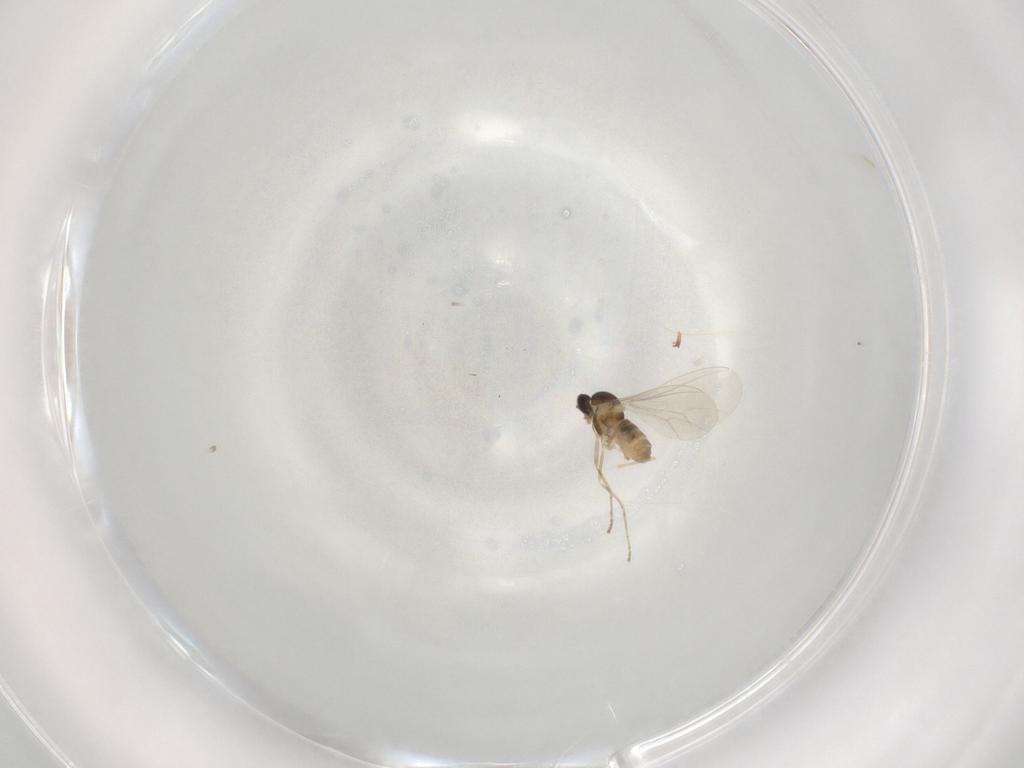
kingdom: Animalia
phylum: Arthropoda
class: Insecta
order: Diptera
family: Cecidomyiidae
